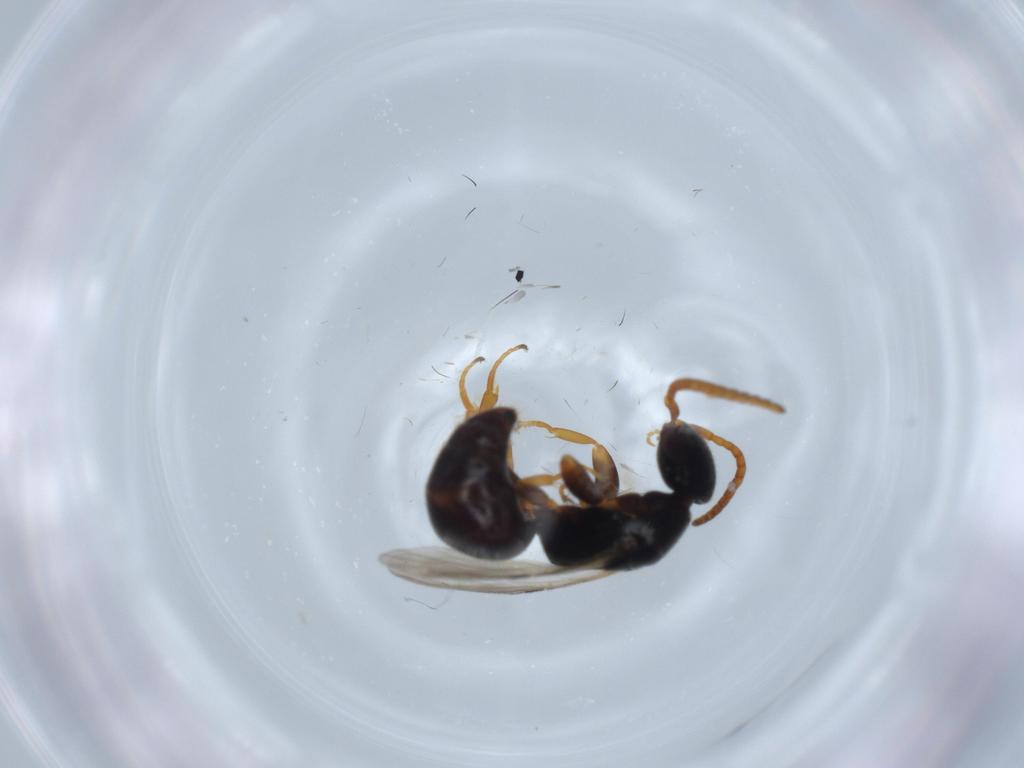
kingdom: Animalia
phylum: Arthropoda
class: Insecta
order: Hymenoptera
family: Bethylidae
